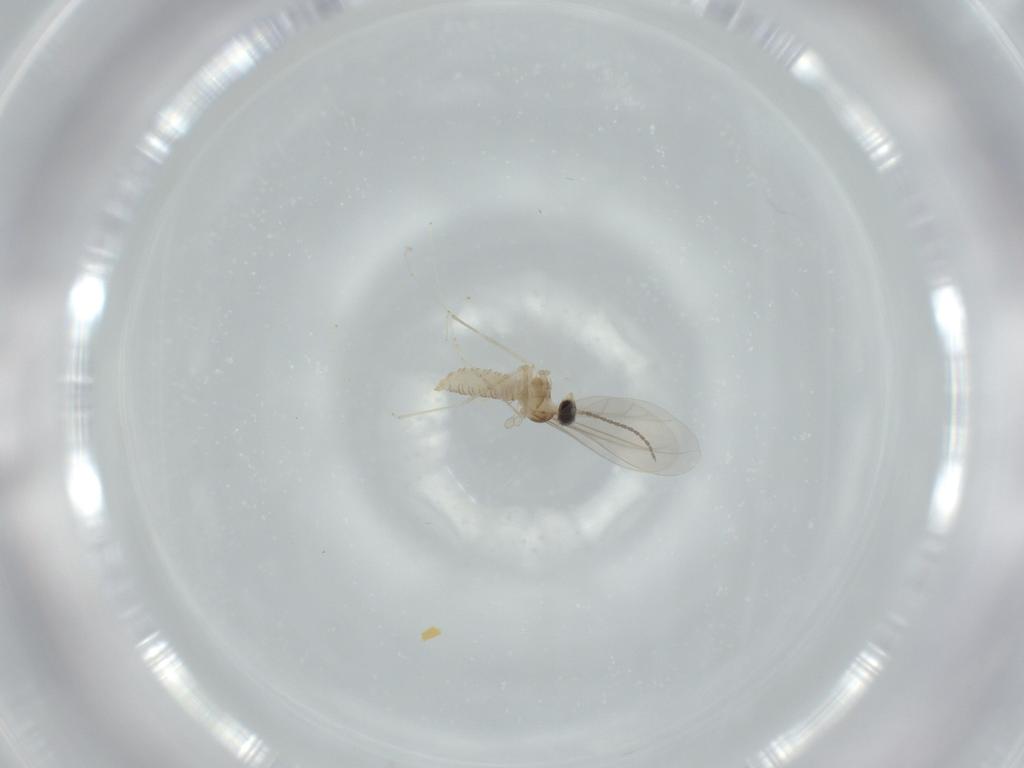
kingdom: Animalia
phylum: Arthropoda
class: Insecta
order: Diptera
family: Cecidomyiidae
